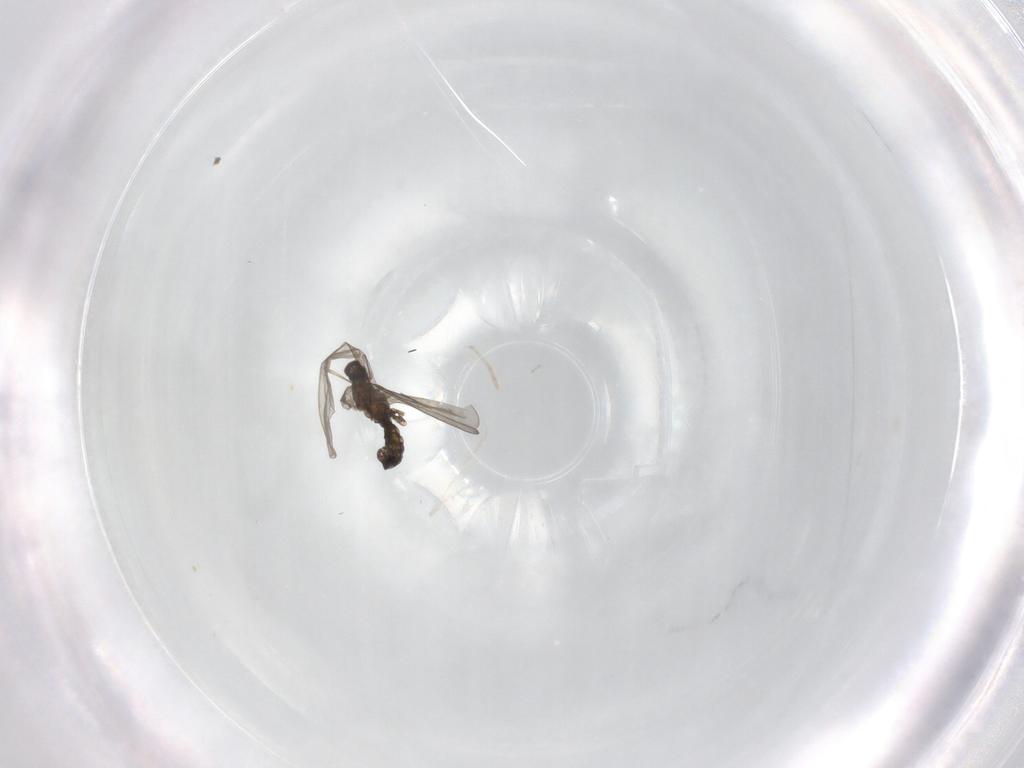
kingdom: Animalia
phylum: Arthropoda
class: Insecta
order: Diptera
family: Cecidomyiidae
